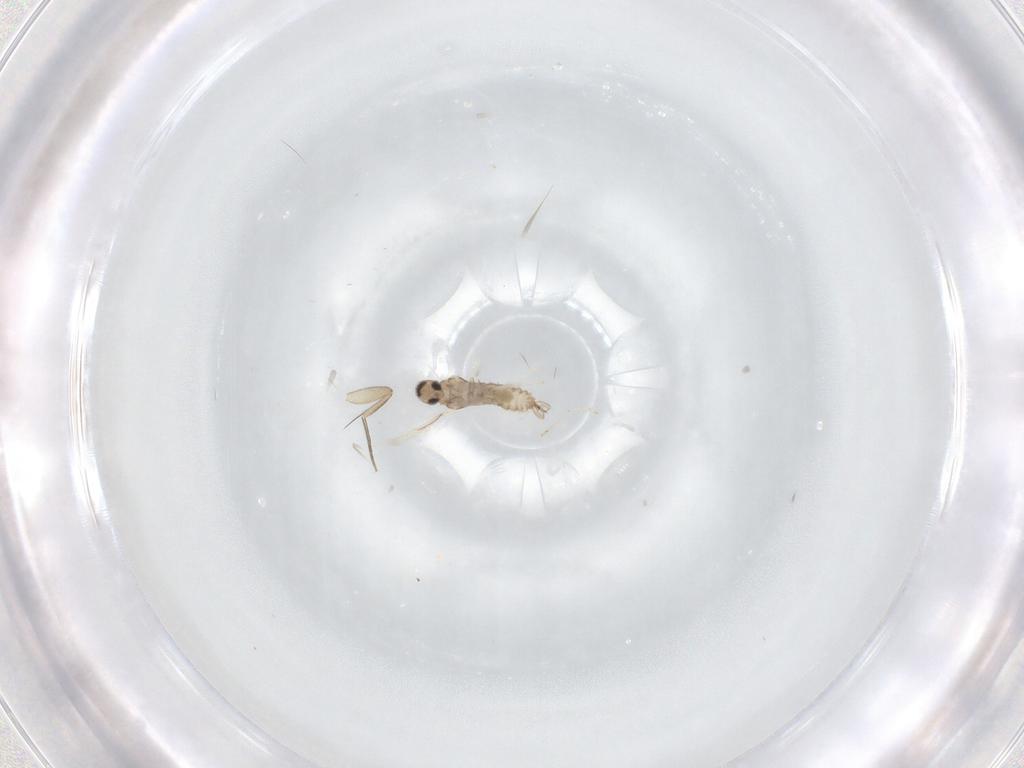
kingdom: Animalia
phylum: Arthropoda
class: Insecta
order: Diptera
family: Cecidomyiidae
